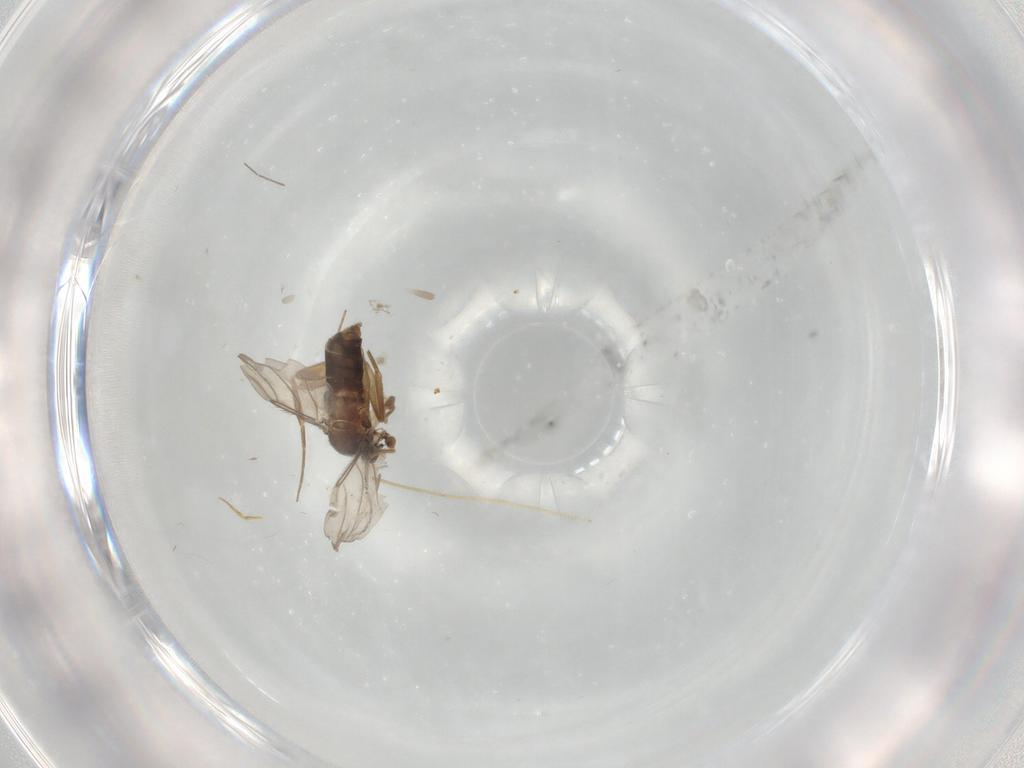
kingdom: Animalia
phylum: Arthropoda
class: Insecta
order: Diptera
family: Sciaridae
